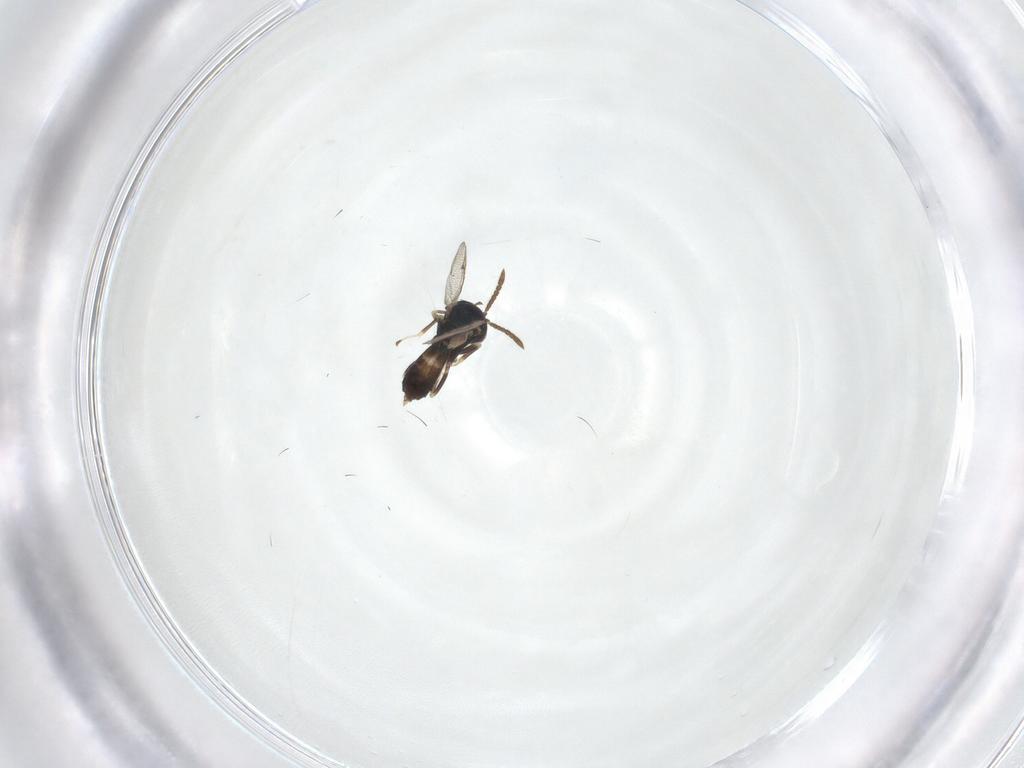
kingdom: Animalia
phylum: Arthropoda
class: Insecta
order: Hymenoptera
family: Pteromalidae
